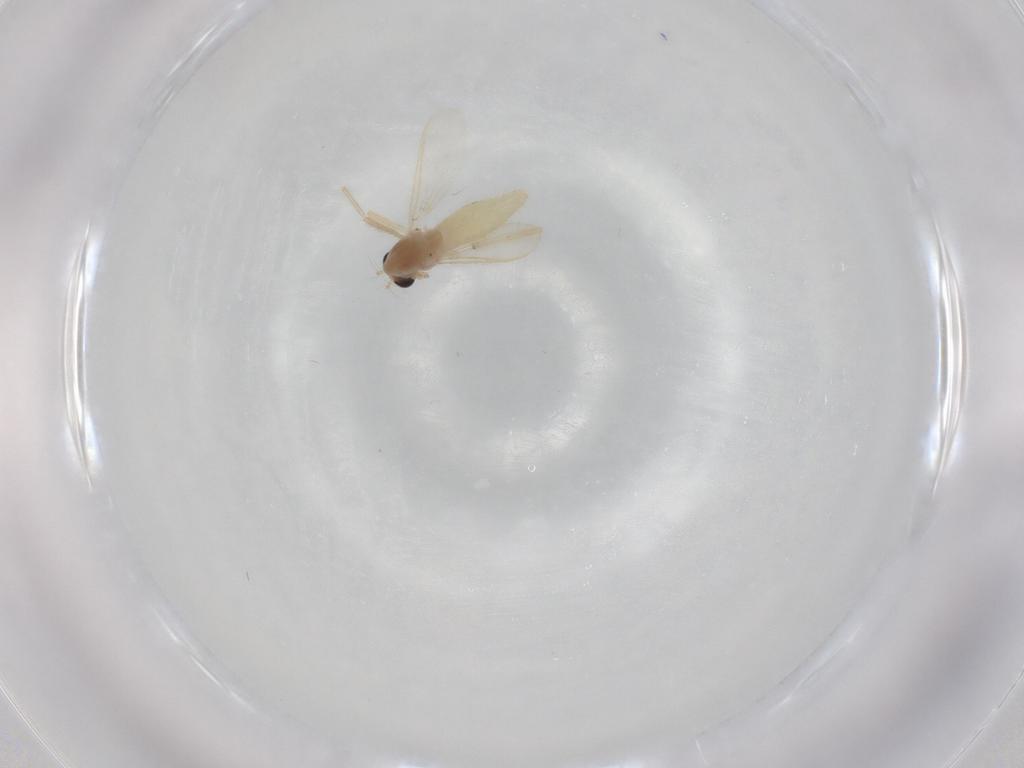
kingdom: Animalia
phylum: Arthropoda
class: Insecta
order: Diptera
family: Chironomidae
